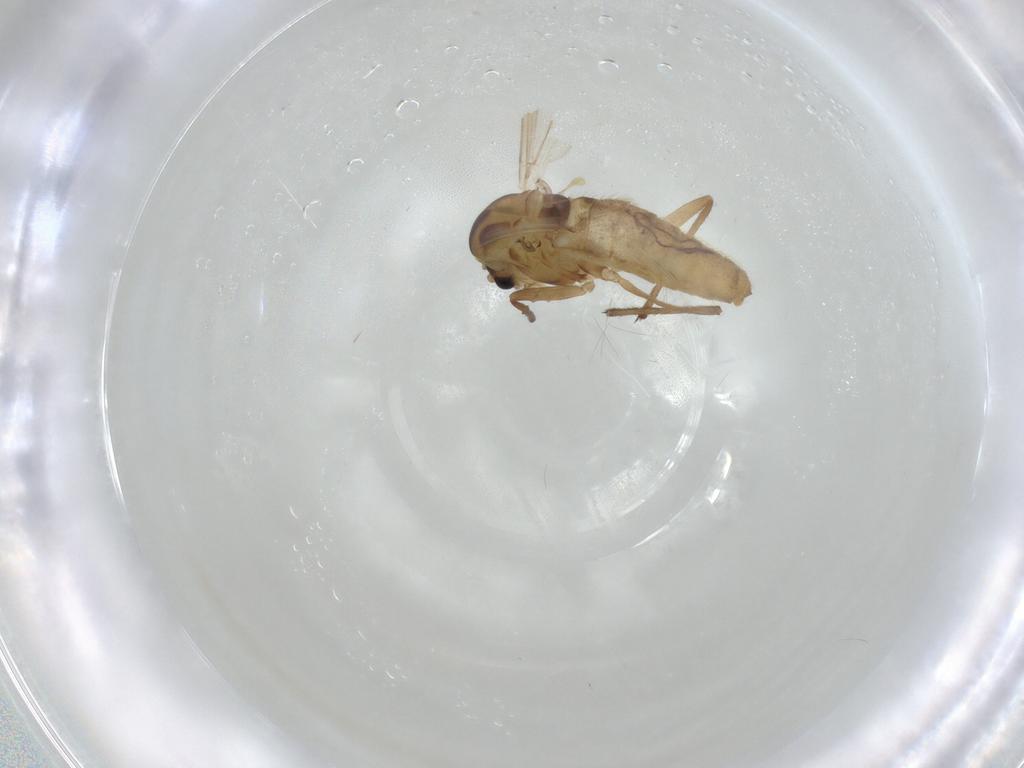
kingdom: Animalia
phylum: Arthropoda
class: Insecta
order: Diptera
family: Chironomidae
